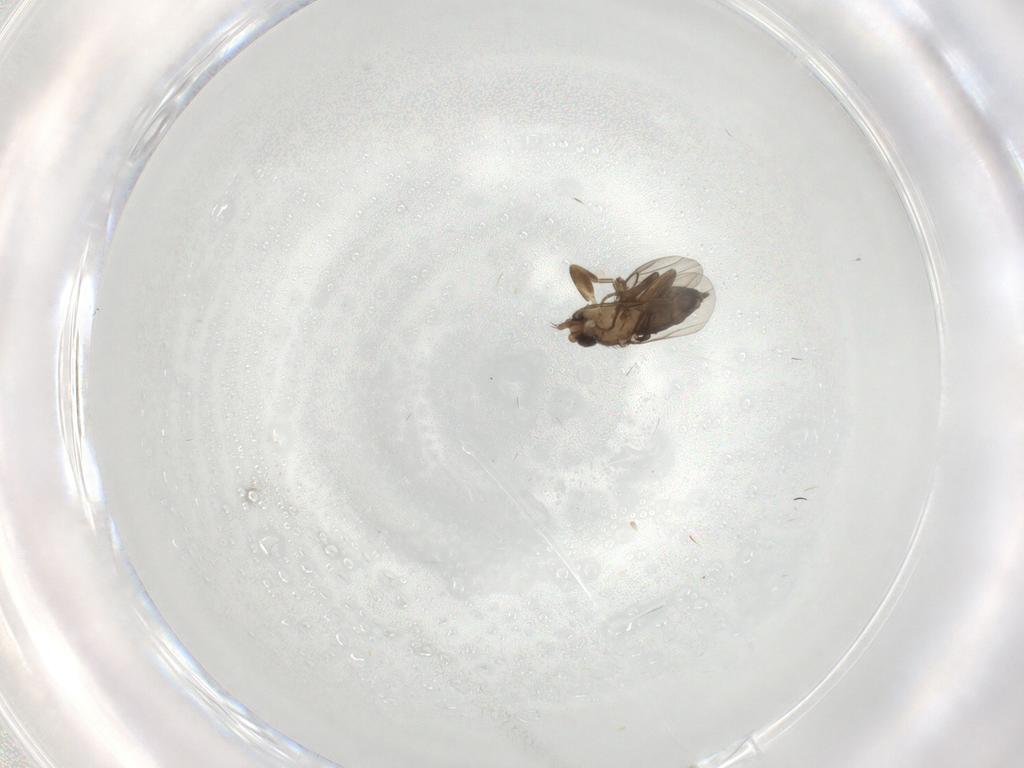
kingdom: Animalia
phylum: Arthropoda
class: Insecta
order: Diptera
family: Phoridae
